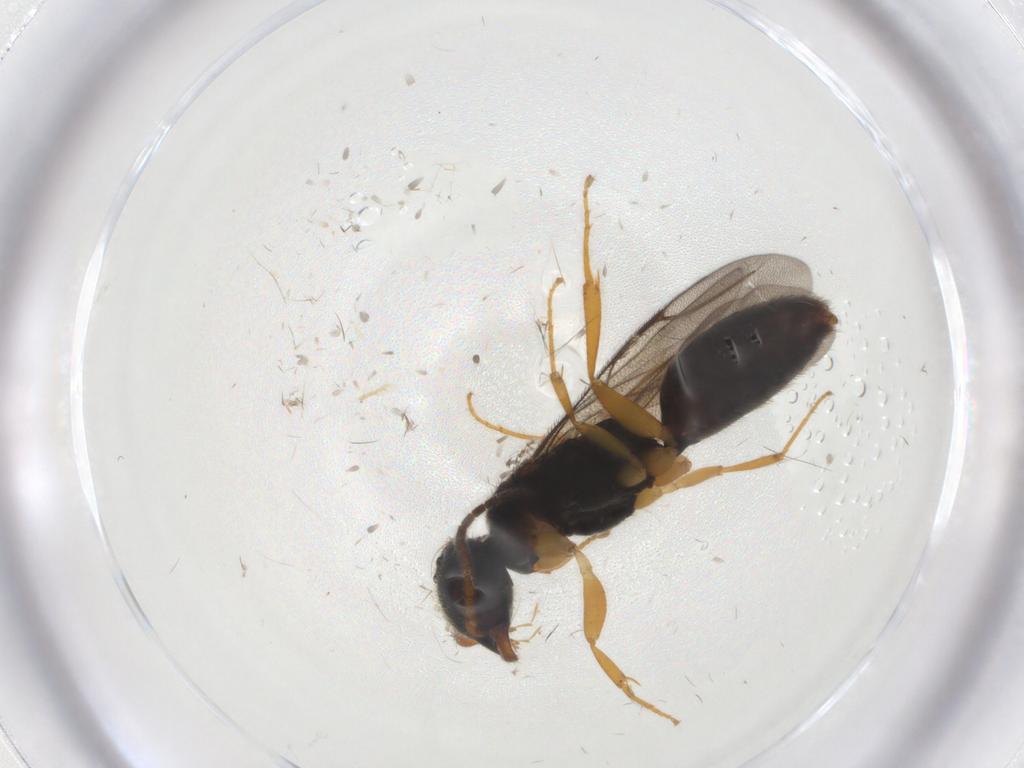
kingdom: Animalia
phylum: Arthropoda
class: Insecta
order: Hymenoptera
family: Bethylidae
